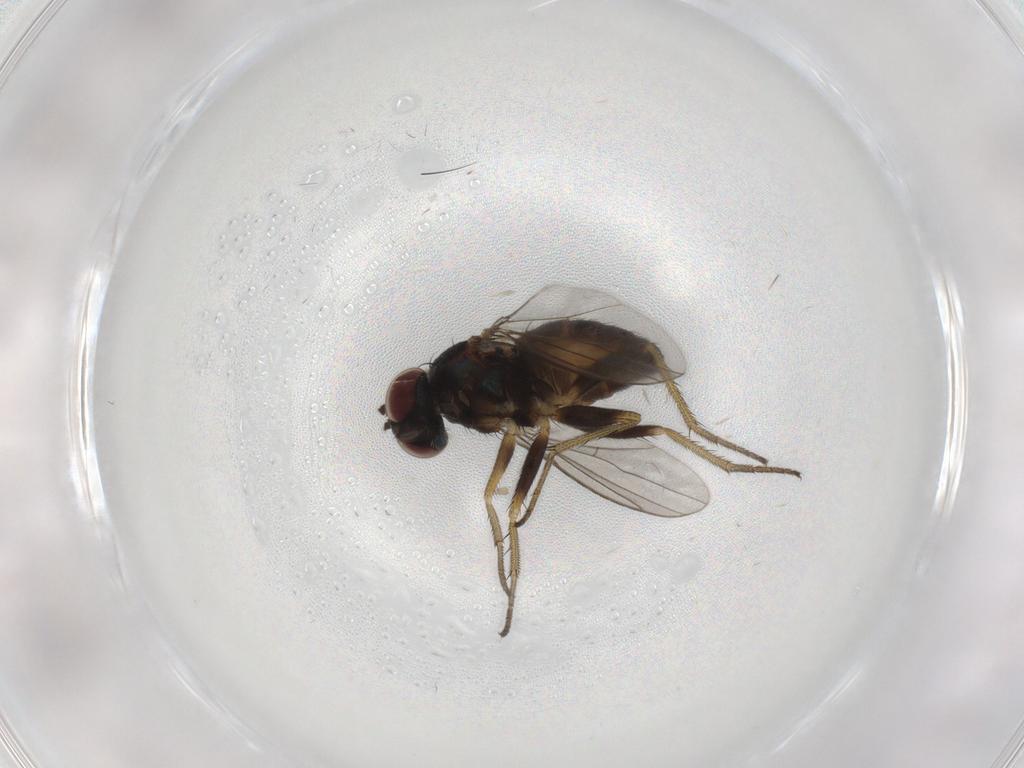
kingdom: Animalia
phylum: Arthropoda
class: Insecta
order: Diptera
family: Dolichopodidae
